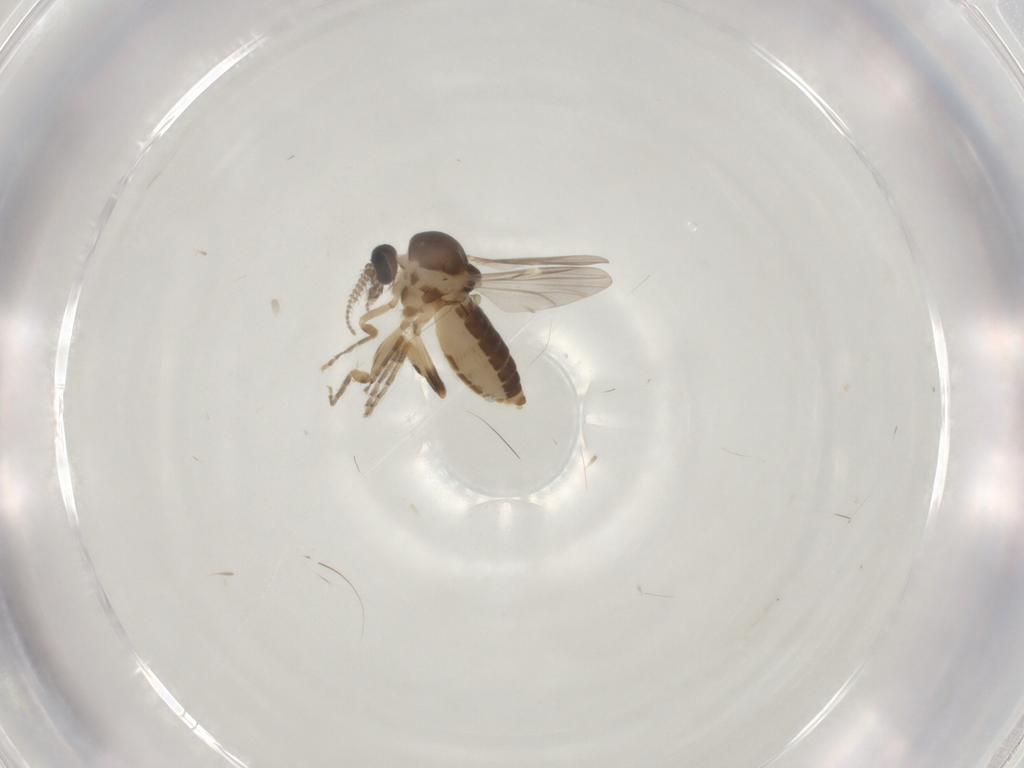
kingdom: Animalia
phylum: Arthropoda
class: Insecta
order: Diptera
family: Ceratopogonidae
